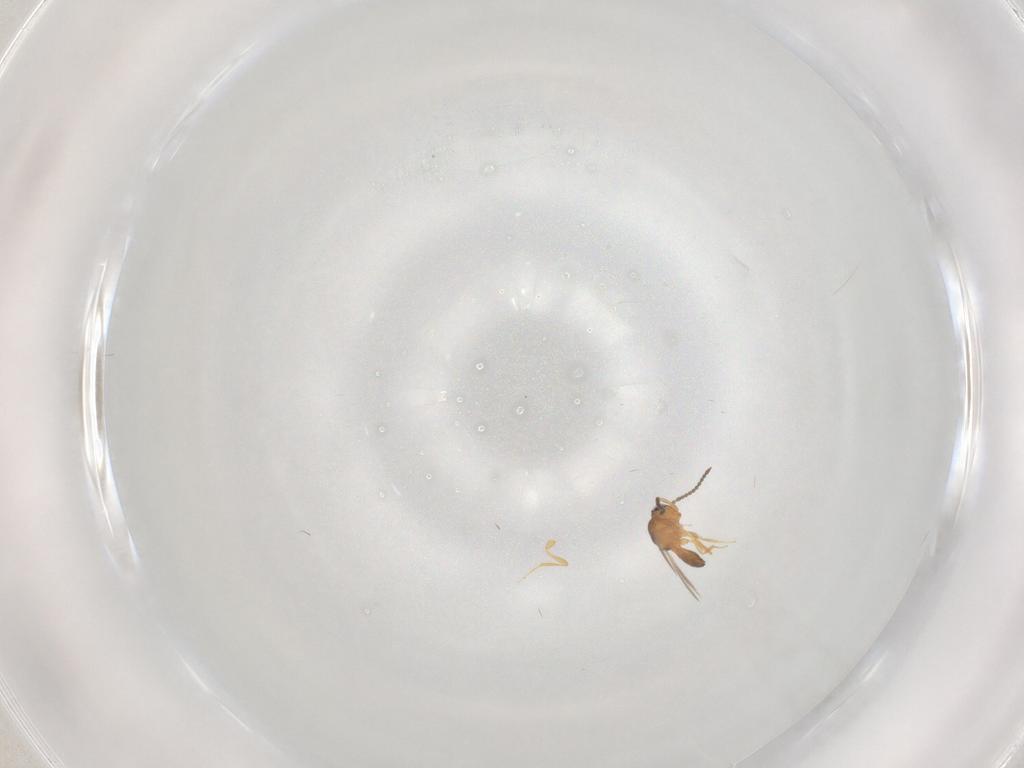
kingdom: Animalia
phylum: Arthropoda
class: Insecta
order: Hymenoptera
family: Scelionidae
